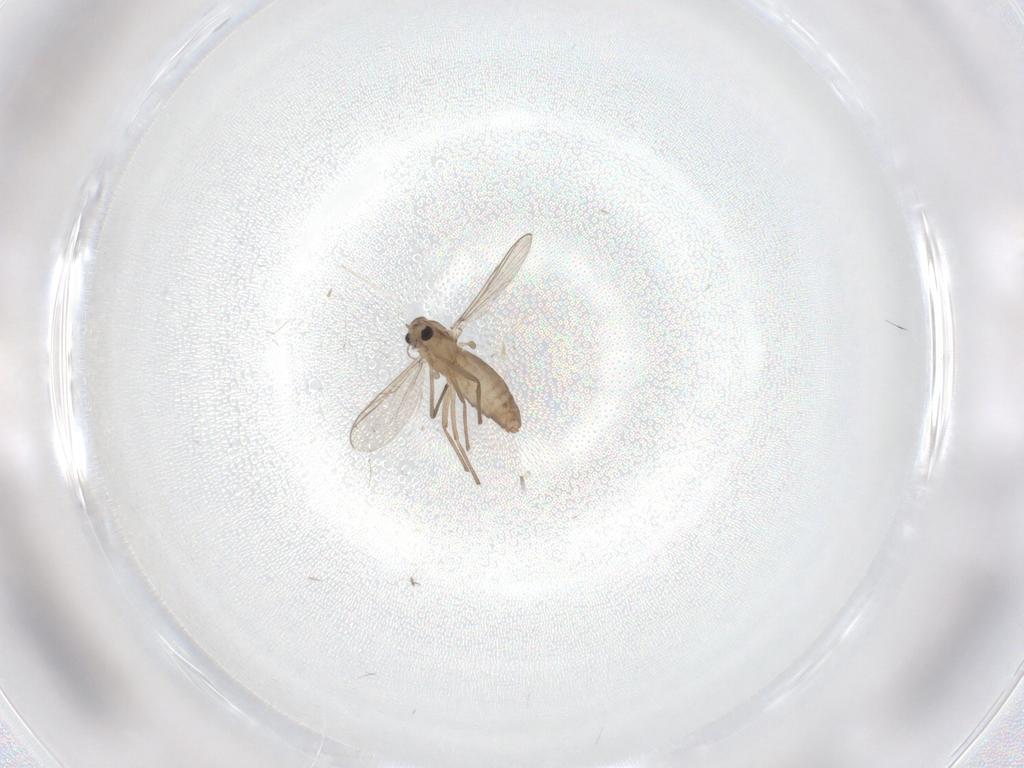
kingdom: Animalia
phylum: Arthropoda
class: Insecta
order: Diptera
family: Chironomidae
